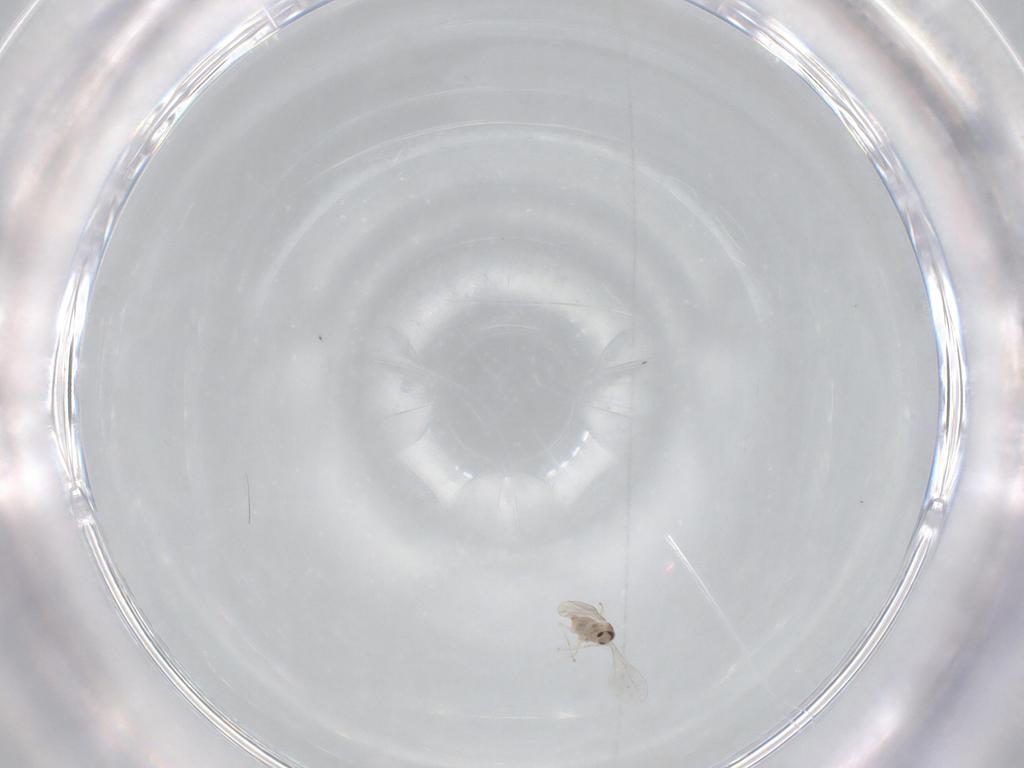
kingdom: Animalia
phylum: Arthropoda
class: Insecta
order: Diptera
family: Cecidomyiidae
